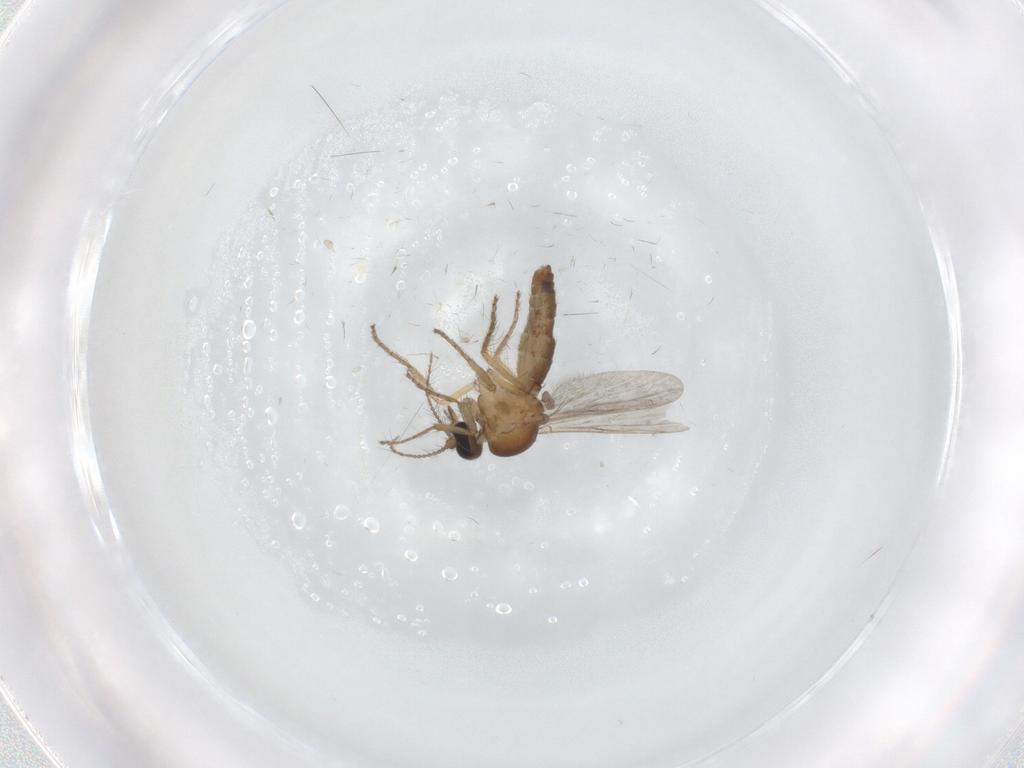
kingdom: Animalia
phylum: Arthropoda
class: Insecta
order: Diptera
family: Ceratopogonidae
